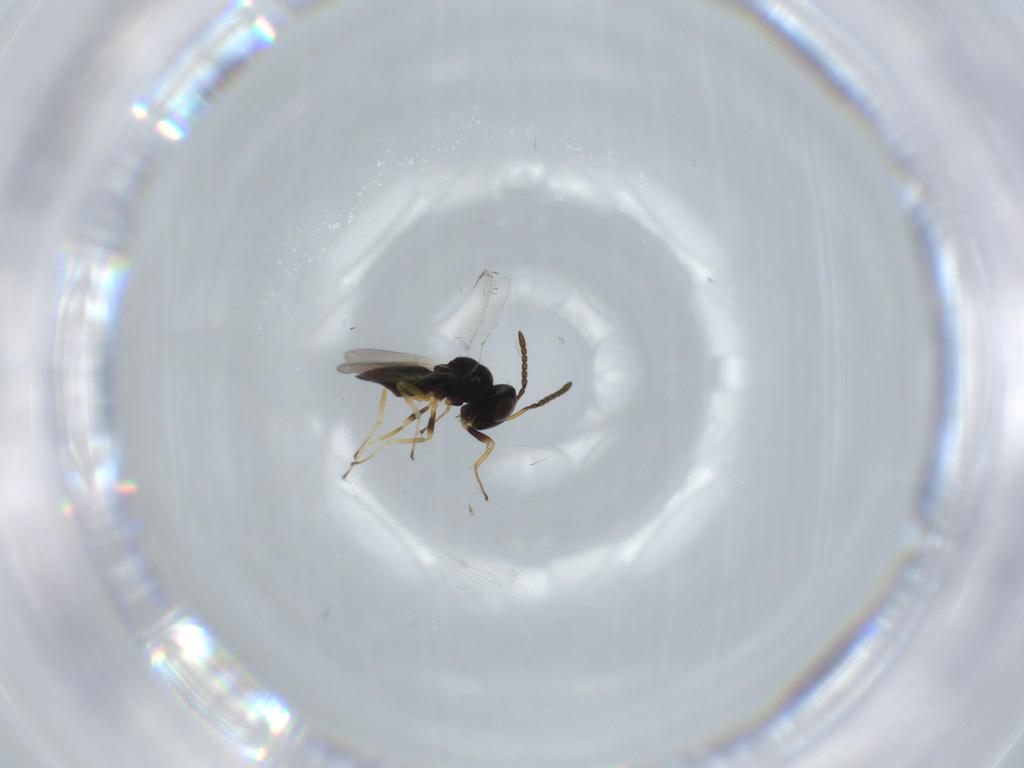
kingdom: Animalia
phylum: Arthropoda
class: Insecta
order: Hymenoptera
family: Pteromalidae
